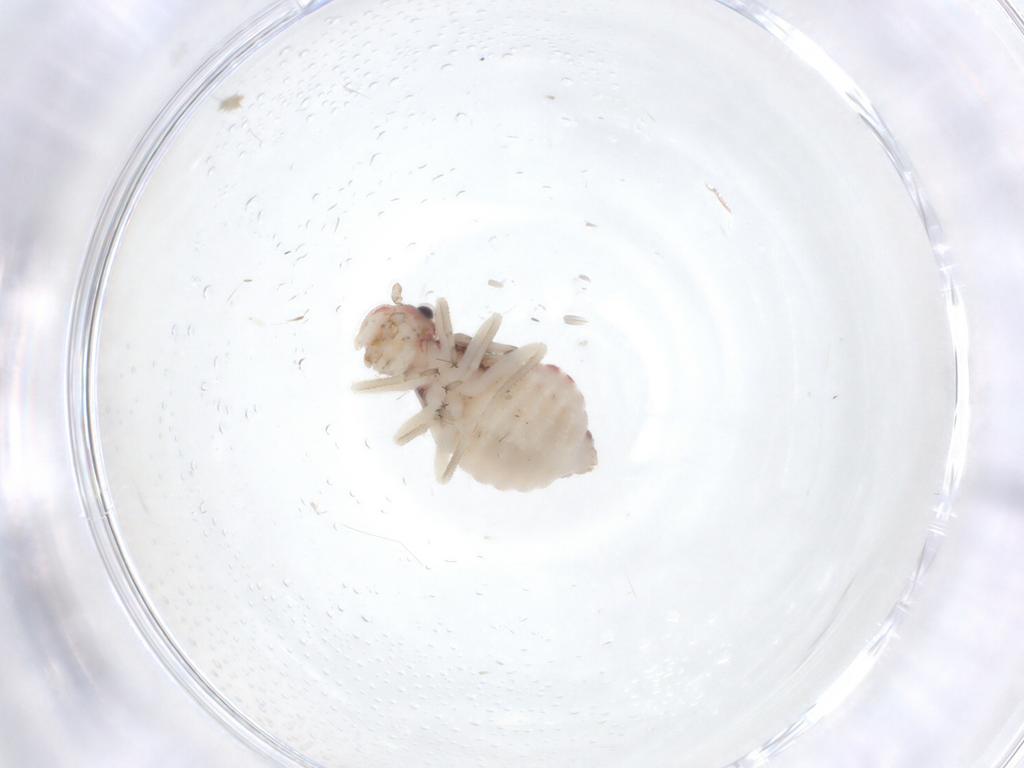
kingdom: Animalia
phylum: Arthropoda
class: Insecta
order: Psocodea
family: Amphipsocidae
